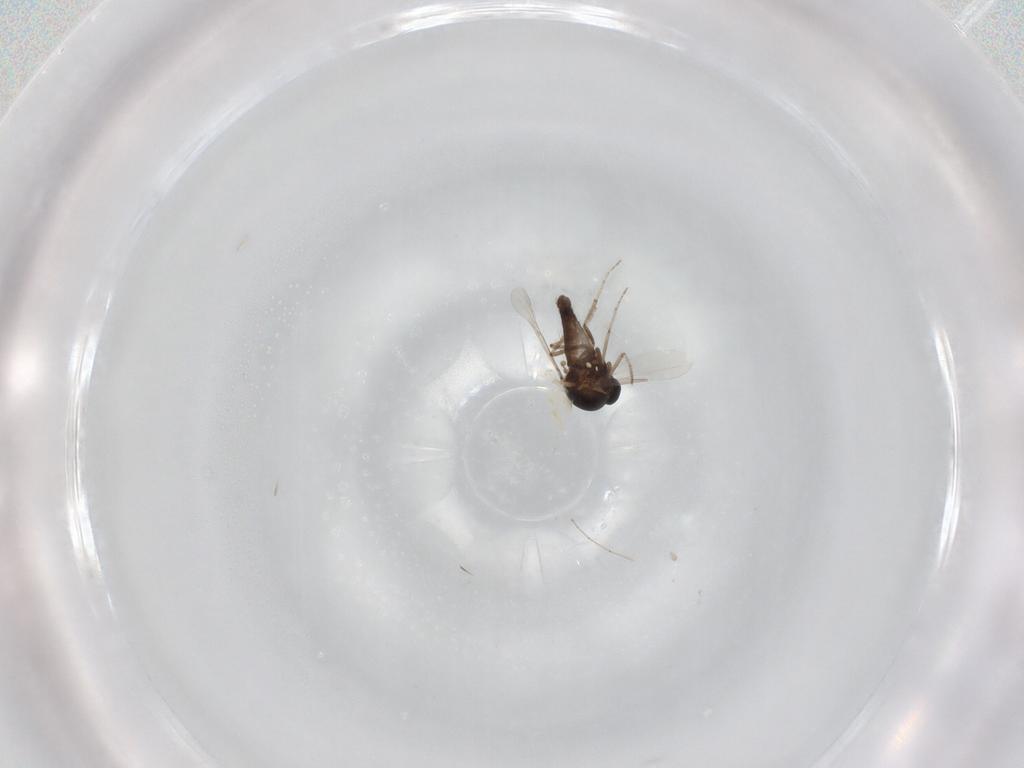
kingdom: Animalia
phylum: Arthropoda
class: Insecta
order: Diptera
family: Ceratopogonidae
